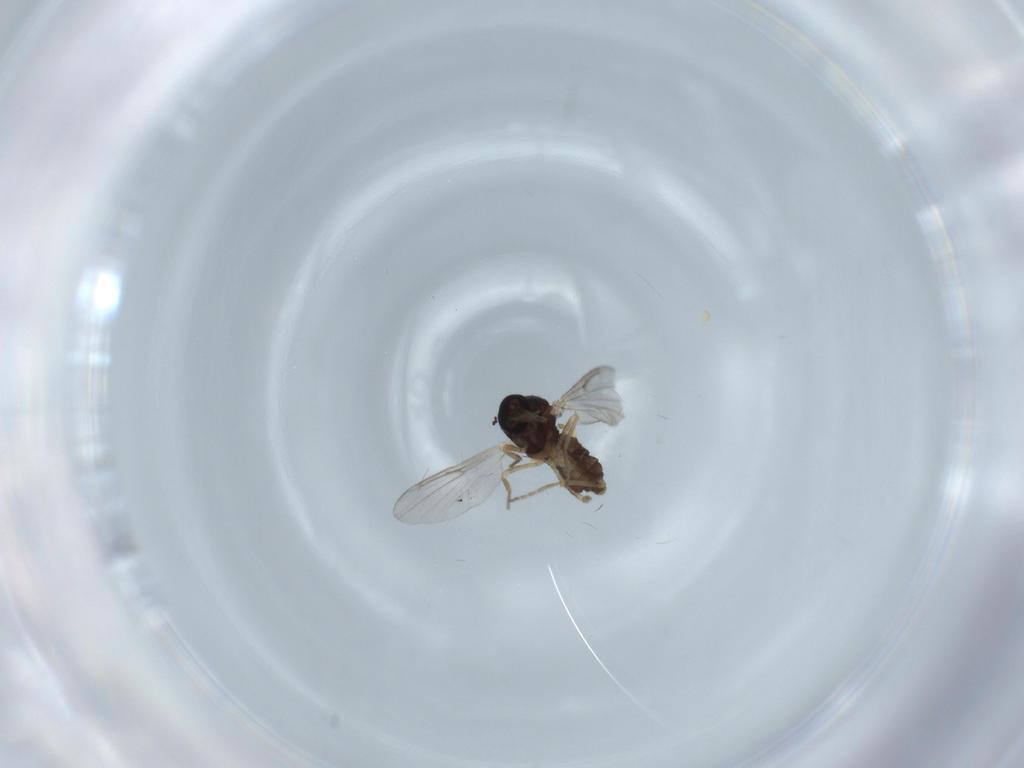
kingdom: Animalia
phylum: Arthropoda
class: Insecta
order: Diptera
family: Ceratopogonidae
